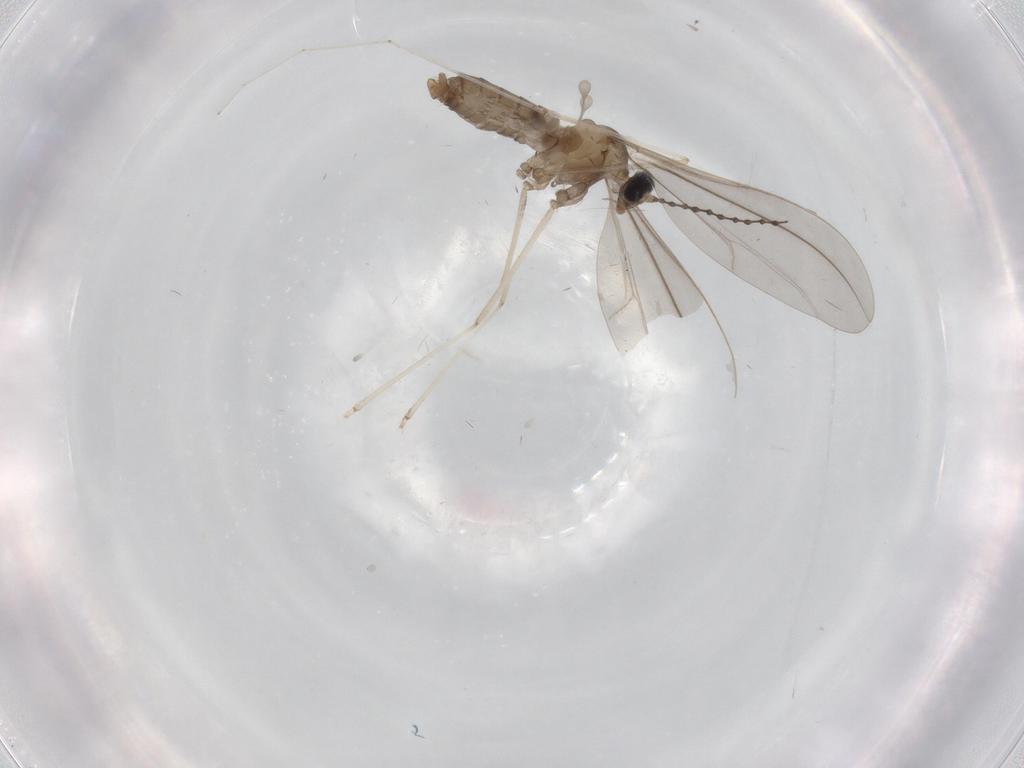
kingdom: Animalia
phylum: Arthropoda
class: Insecta
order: Diptera
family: Cecidomyiidae
